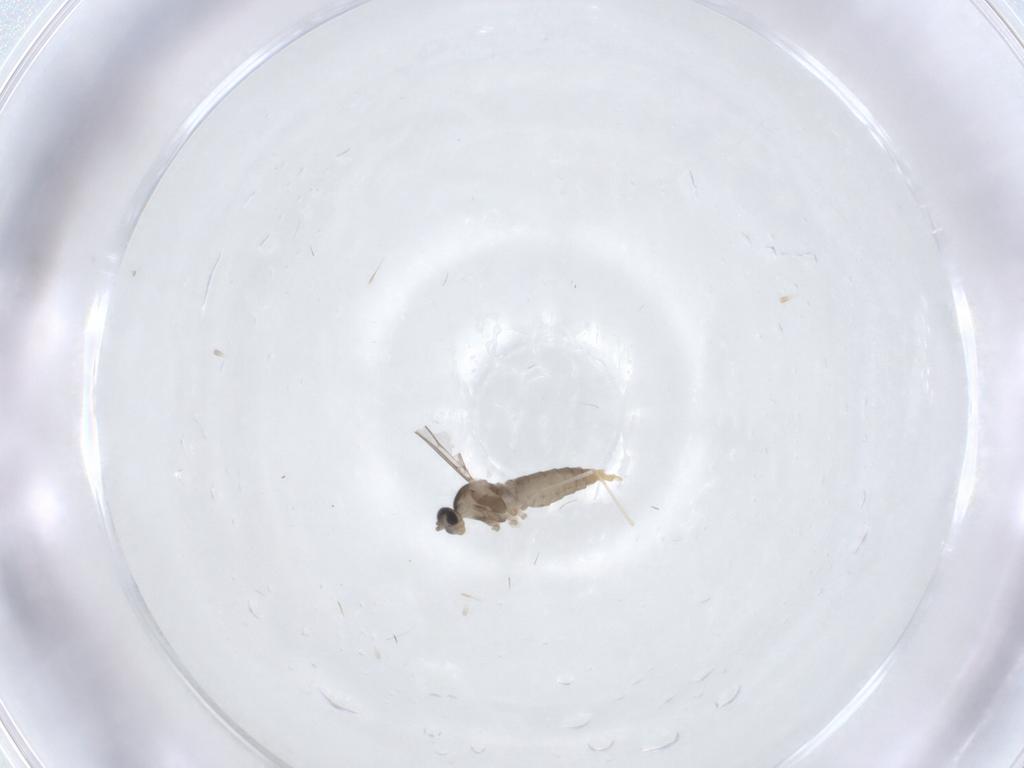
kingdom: Animalia
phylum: Arthropoda
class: Insecta
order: Diptera
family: Cecidomyiidae
